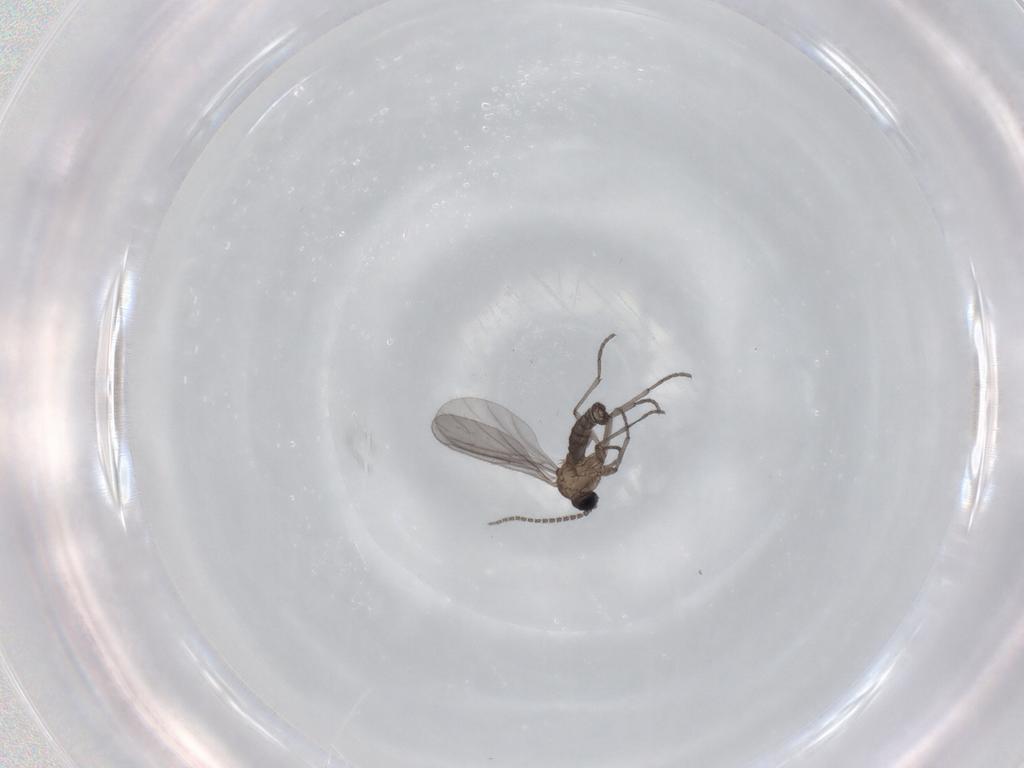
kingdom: Animalia
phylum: Arthropoda
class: Insecta
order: Diptera
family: Sciaridae
